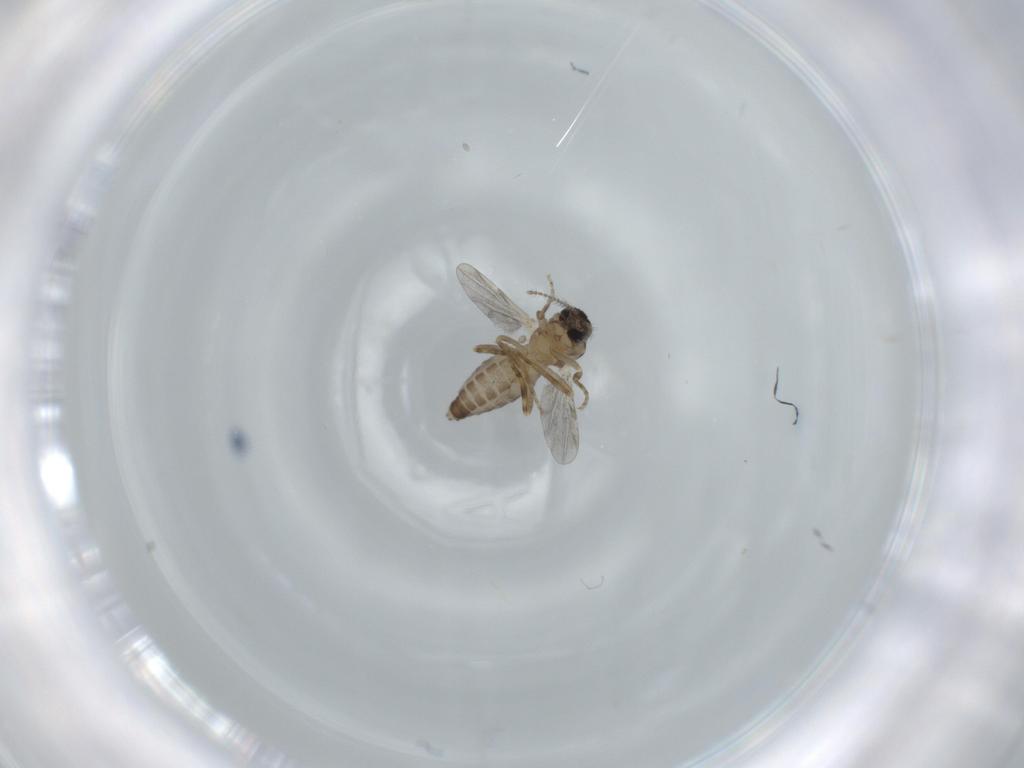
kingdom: Animalia
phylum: Arthropoda
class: Insecta
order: Diptera
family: Ceratopogonidae
